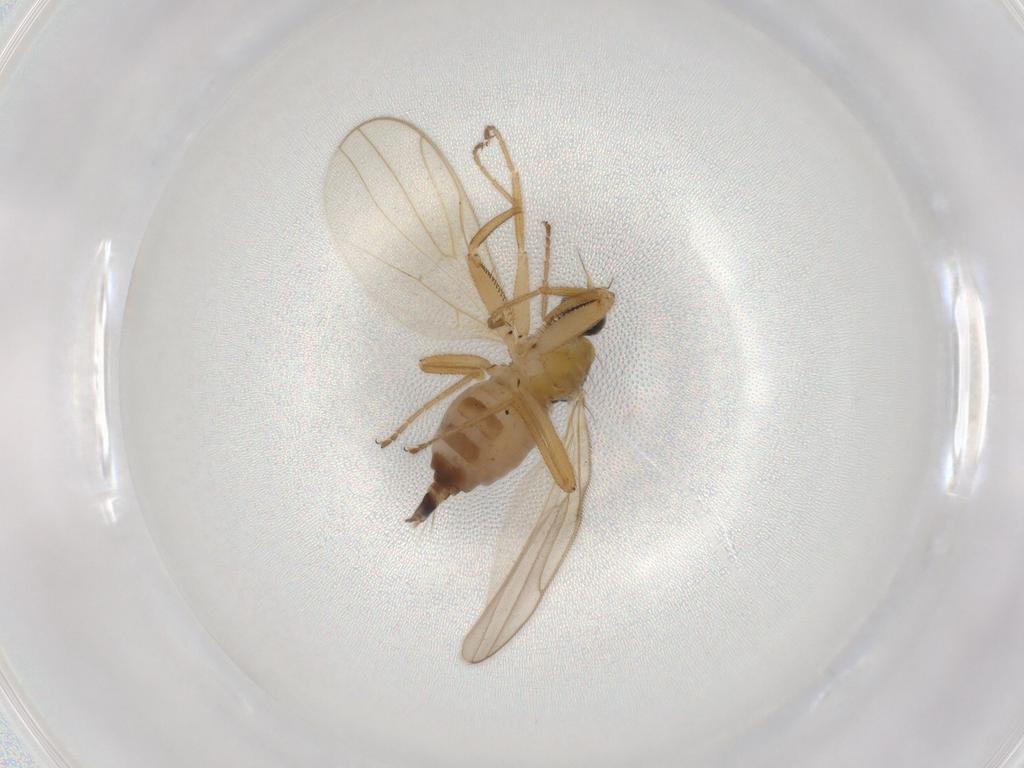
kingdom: Animalia
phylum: Arthropoda
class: Insecta
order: Diptera
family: Hybotidae
